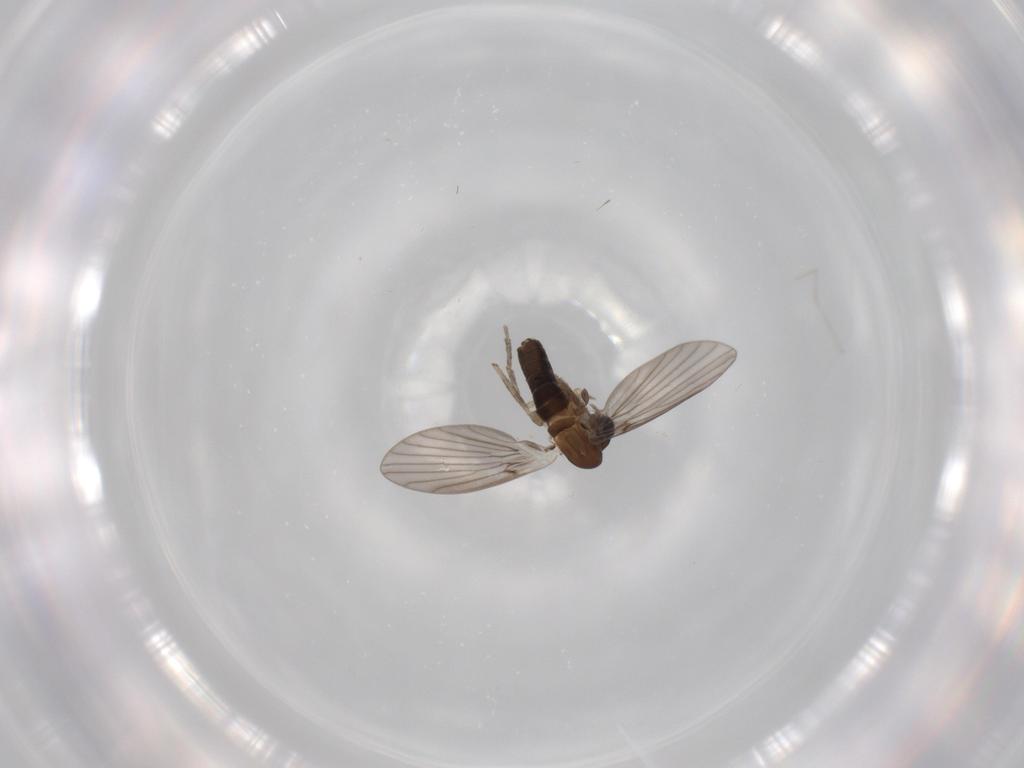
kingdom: Animalia
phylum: Arthropoda
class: Insecta
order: Diptera
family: Psychodidae
